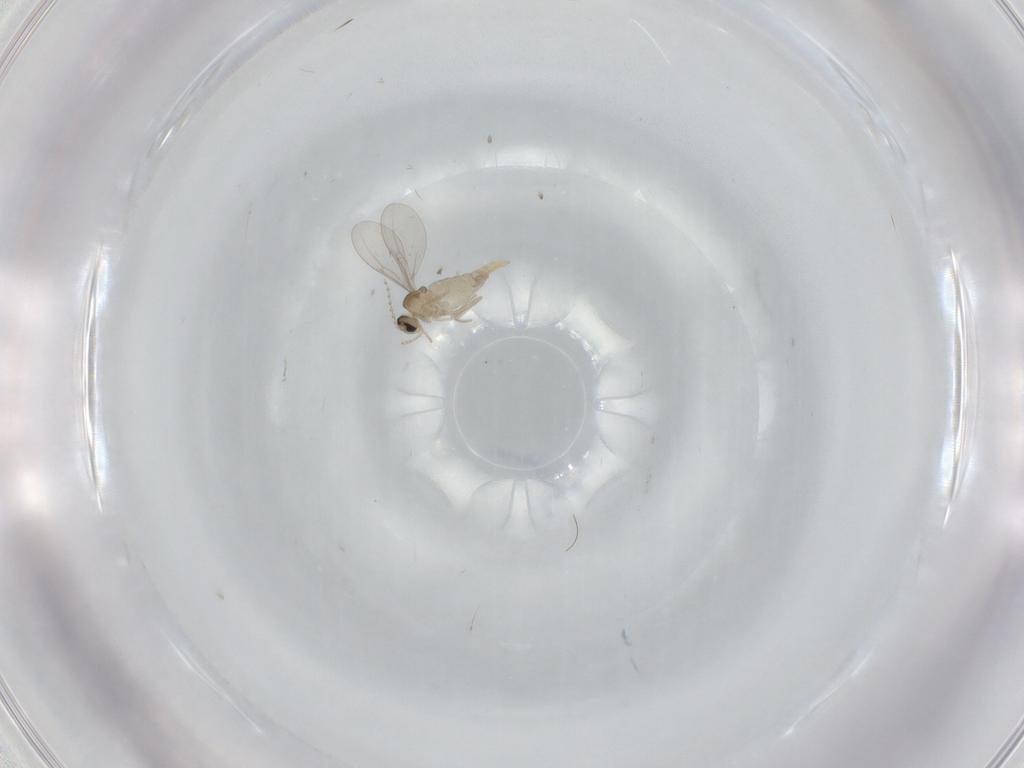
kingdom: Animalia
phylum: Arthropoda
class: Insecta
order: Diptera
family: Cecidomyiidae
